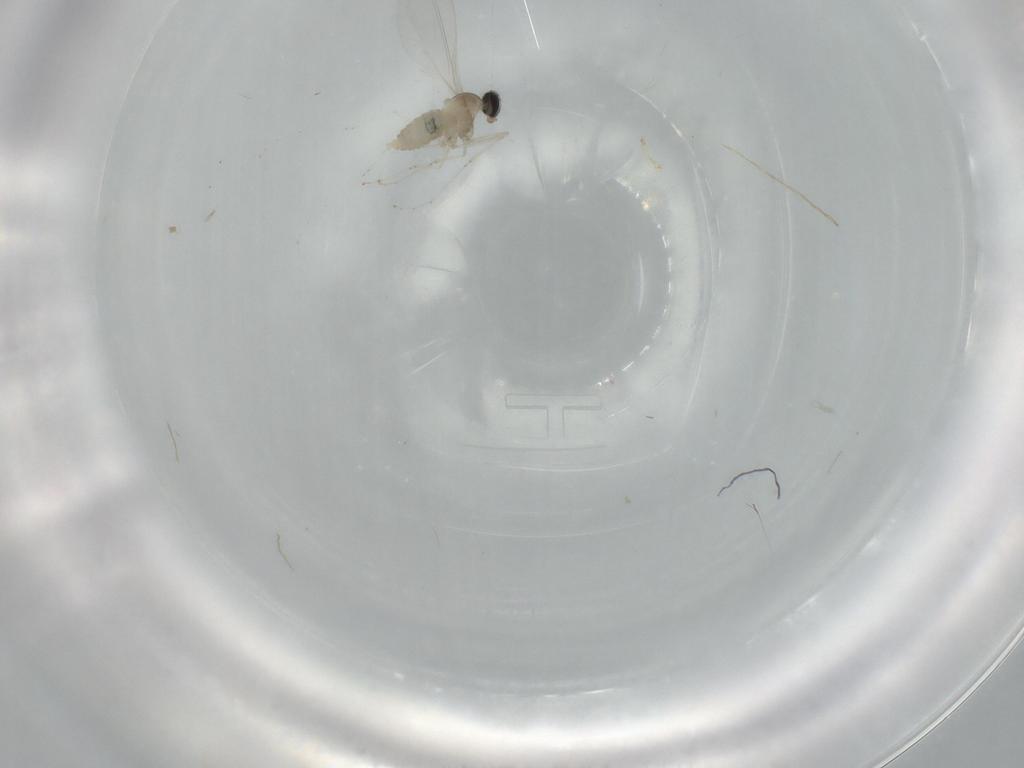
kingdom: Animalia
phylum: Arthropoda
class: Insecta
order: Diptera
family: Cecidomyiidae
